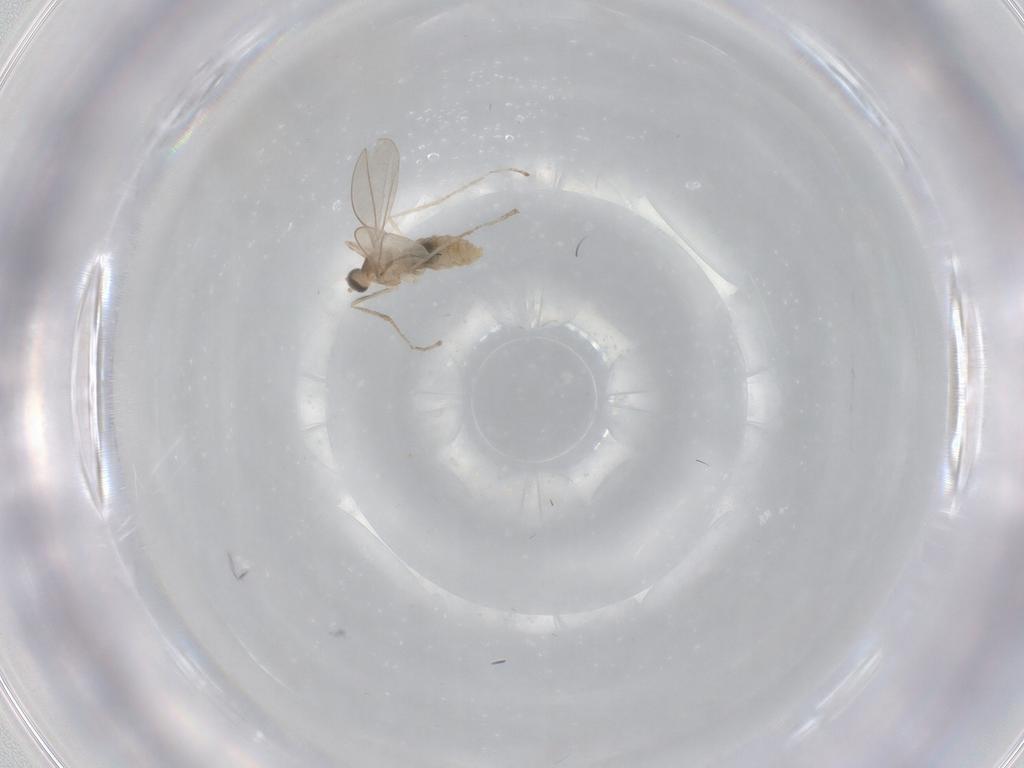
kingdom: Animalia
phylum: Arthropoda
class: Insecta
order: Diptera
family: Cecidomyiidae
